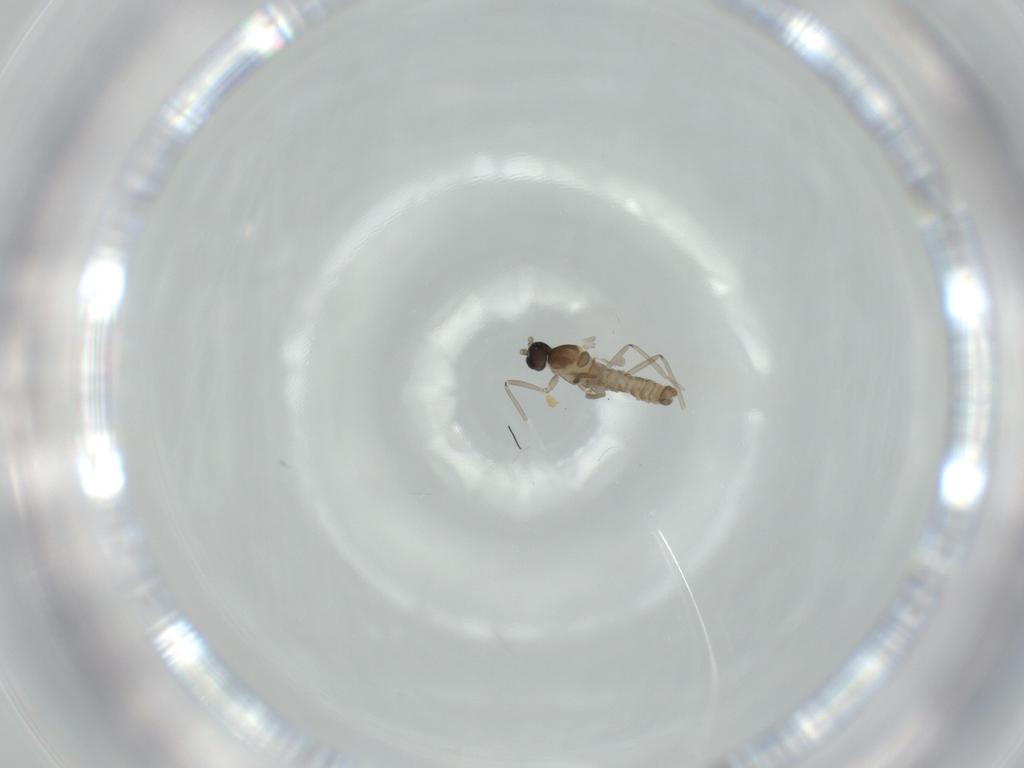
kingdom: Animalia
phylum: Arthropoda
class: Insecta
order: Diptera
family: Cecidomyiidae
